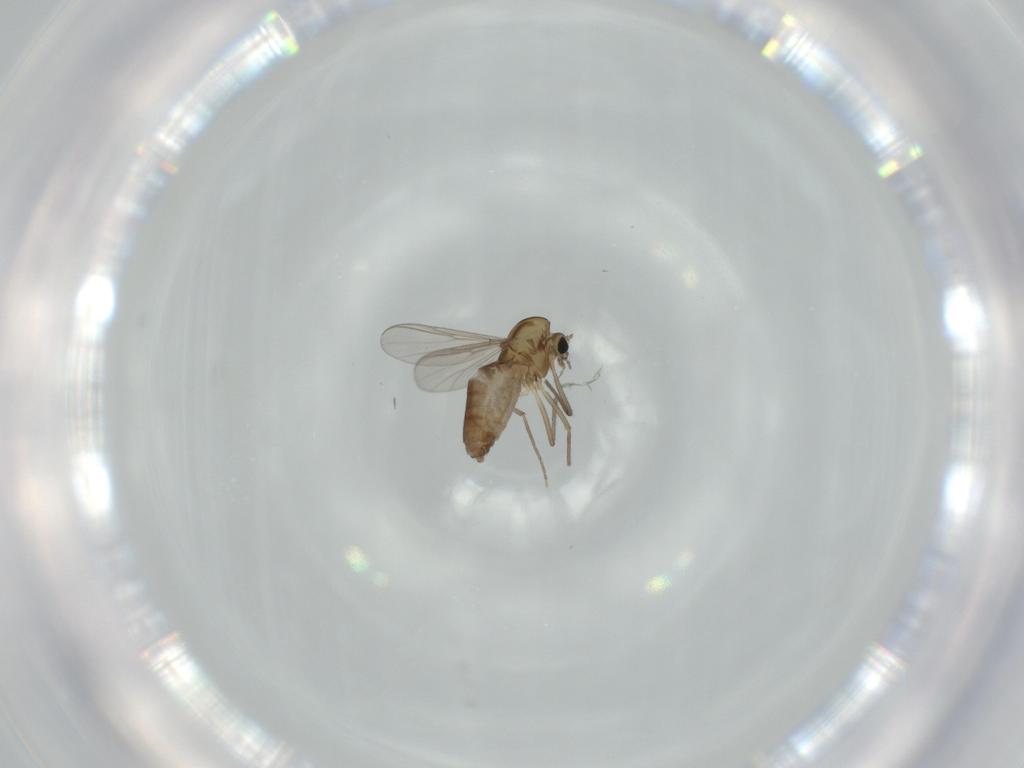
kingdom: Animalia
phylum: Arthropoda
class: Insecta
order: Diptera
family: Chironomidae
